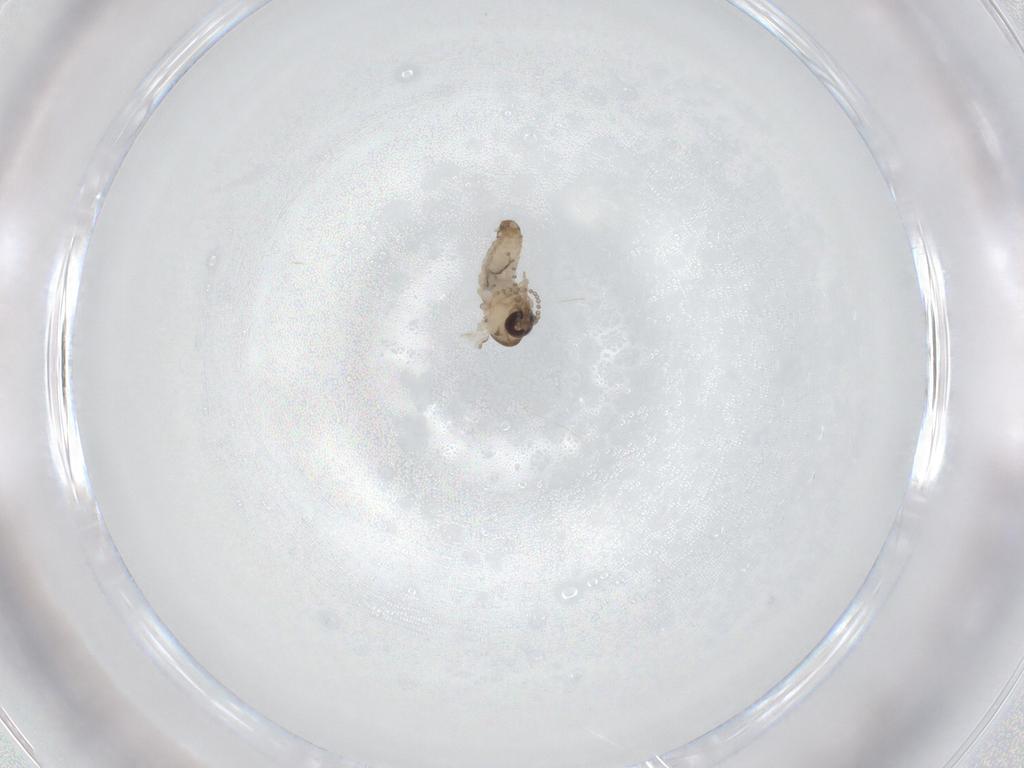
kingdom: Animalia
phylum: Arthropoda
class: Insecta
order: Diptera
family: Psychodidae
